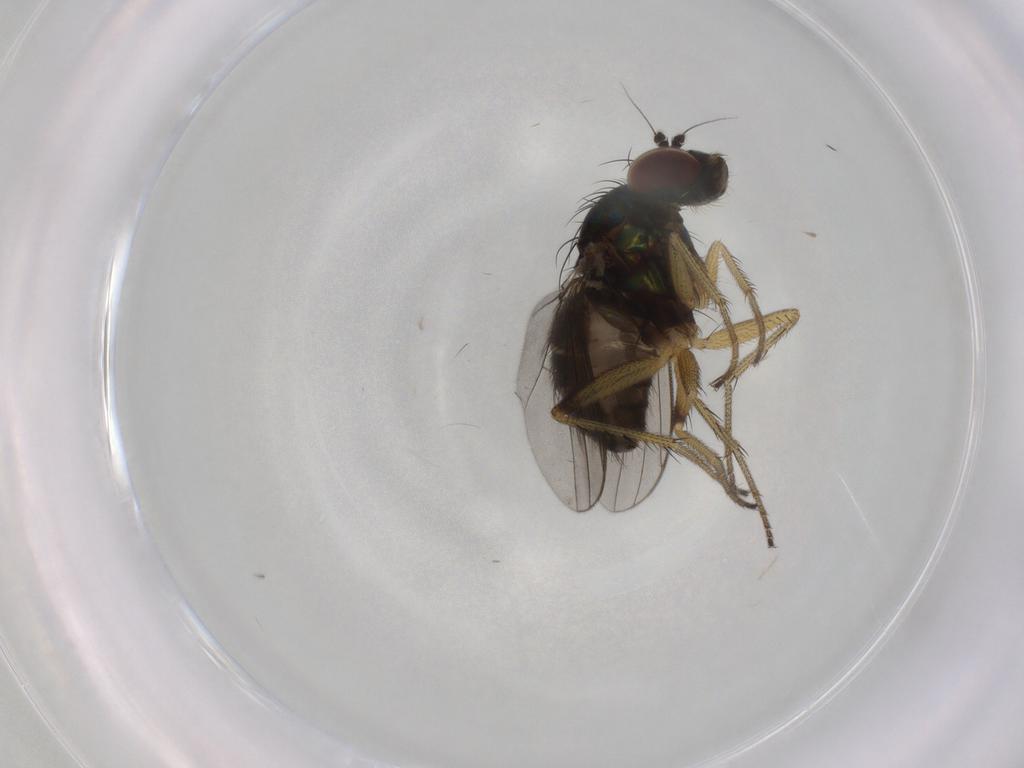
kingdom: Animalia
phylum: Arthropoda
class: Insecta
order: Diptera
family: Dolichopodidae
